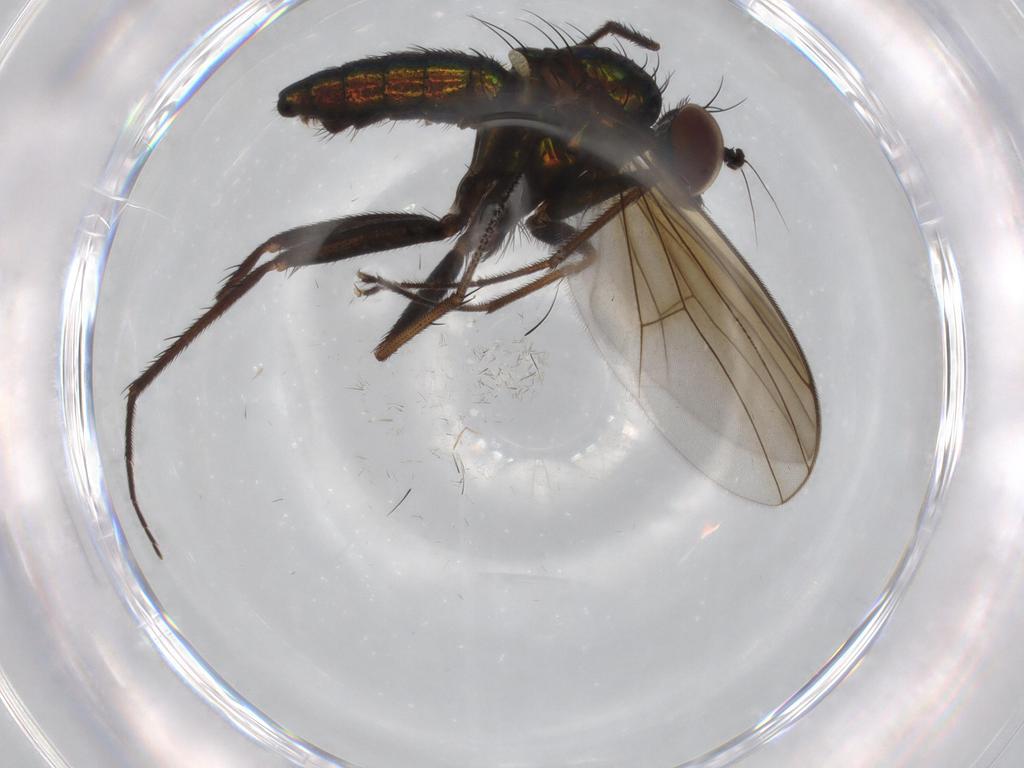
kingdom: Animalia
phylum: Arthropoda
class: Insecta
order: Diptera
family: Dolichopodidae
